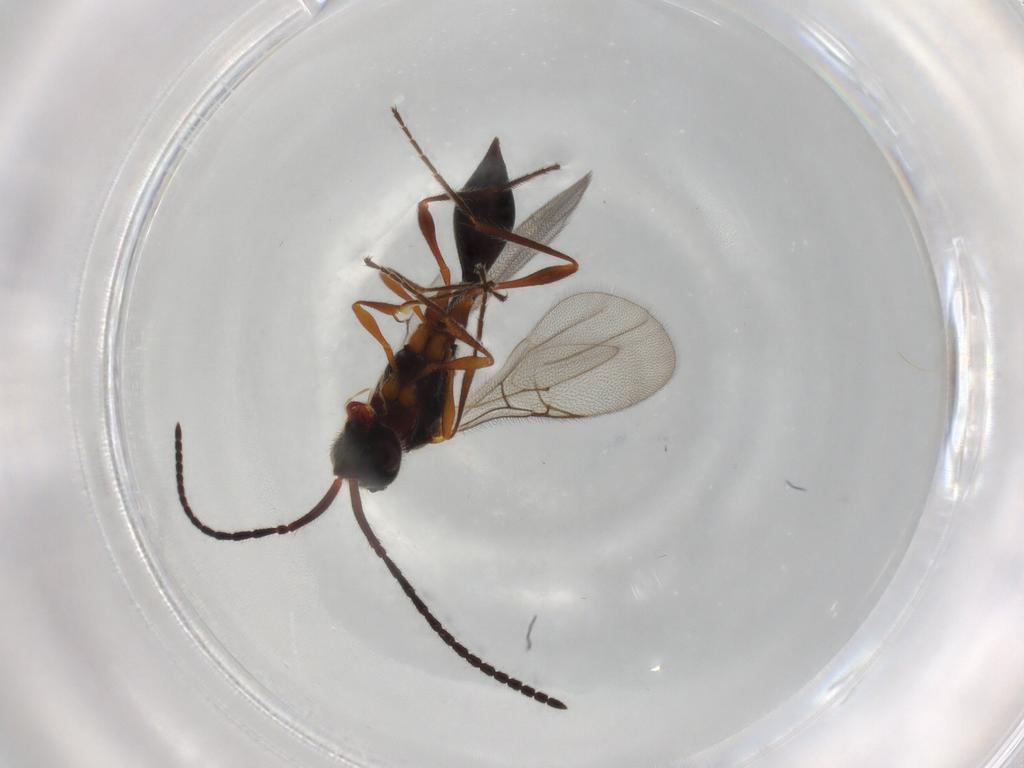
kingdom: Animalia
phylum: Arthropoda
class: Insecta
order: Hymenoptera
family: Diapriidae
